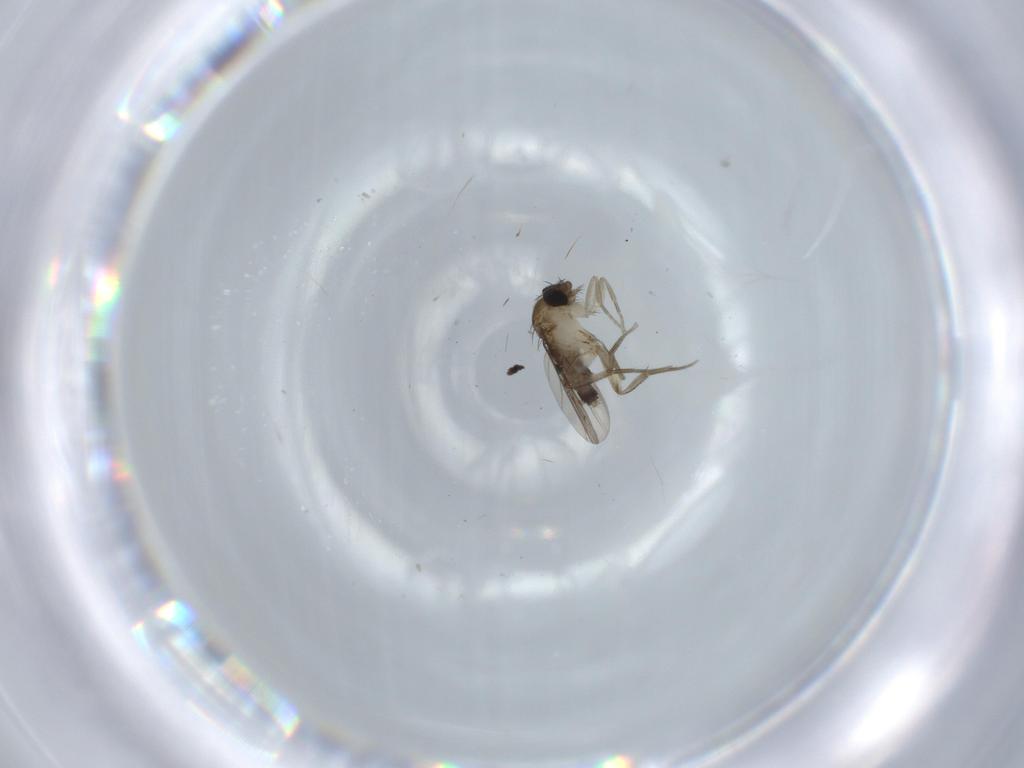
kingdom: Animalia
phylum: Arthropoda
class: Insecta
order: Diptera
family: Phoridae
